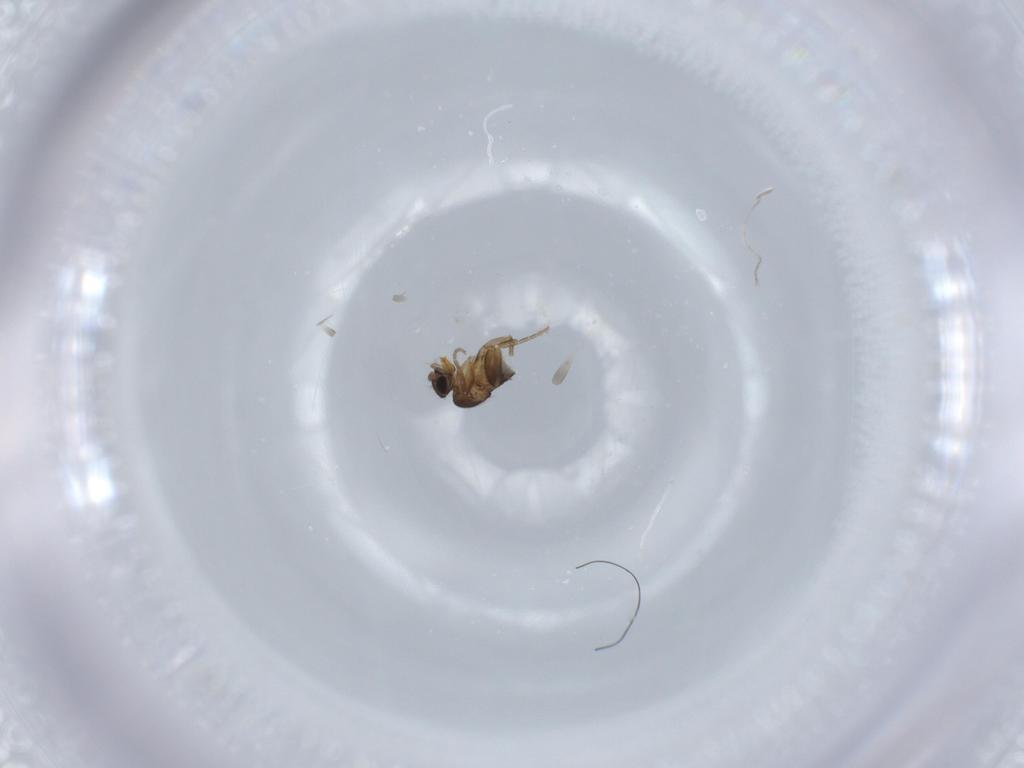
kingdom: Animalia
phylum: Arthropoda
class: Insecta
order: Diptera
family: Phoridae
